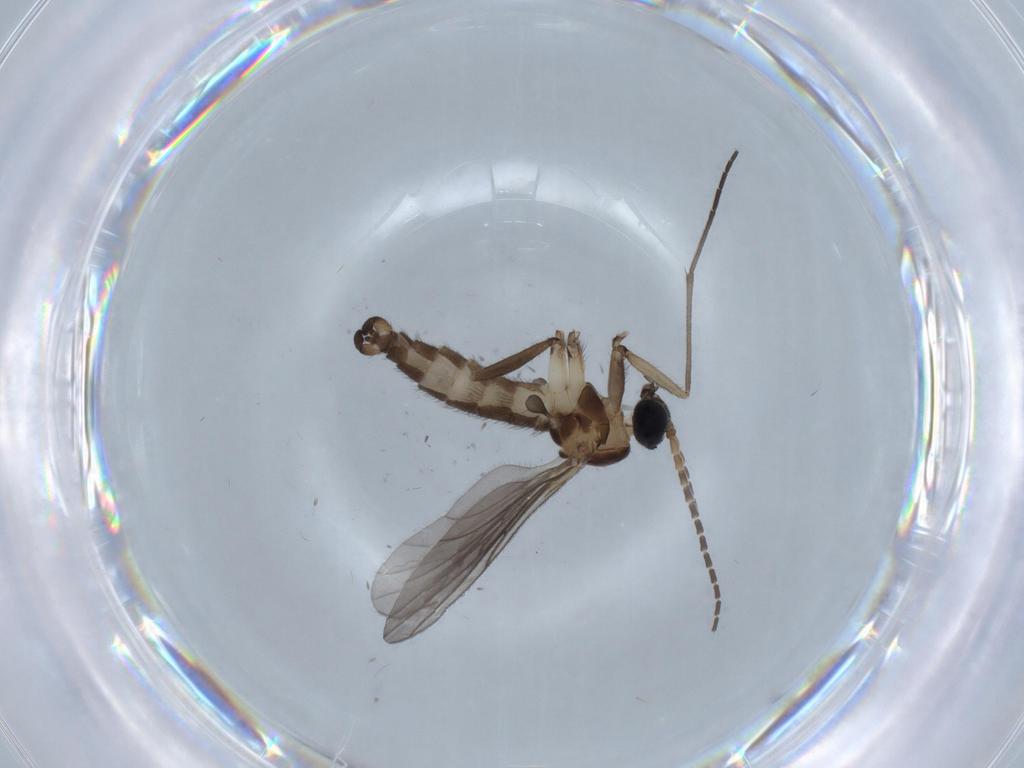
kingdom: Animalia
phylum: Arthropoda
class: Insecta
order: Diptera
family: Sciaridae
